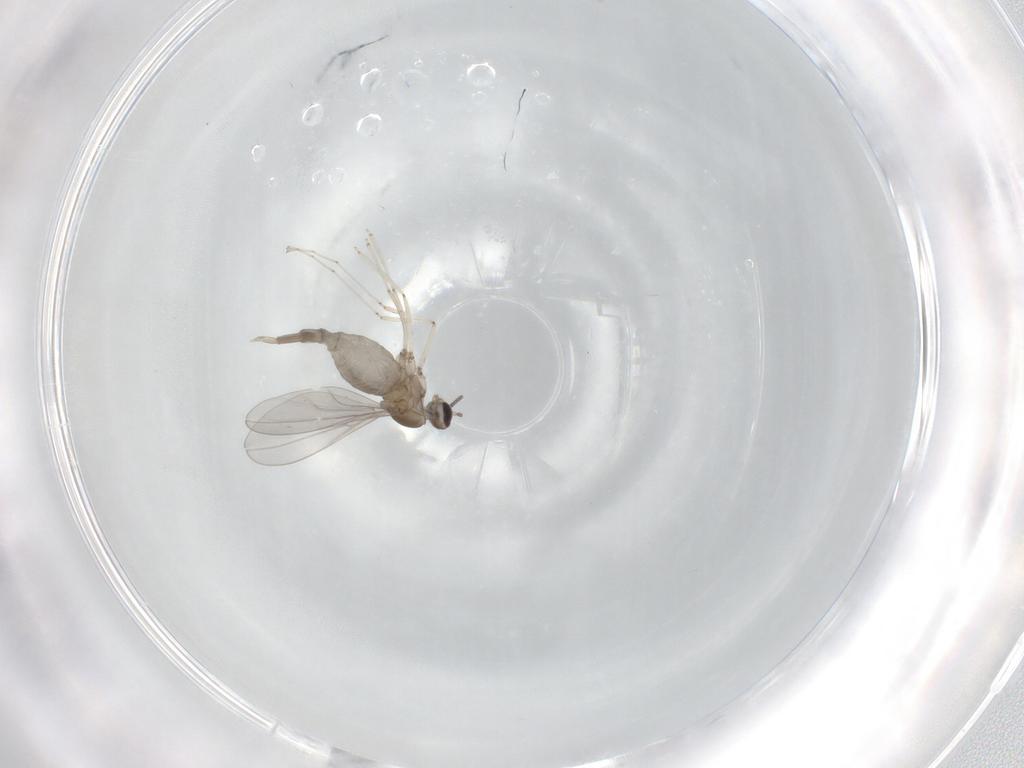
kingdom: Animalia
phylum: Arthropoda
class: Insecta
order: Diptera
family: Cecidomyiidae
